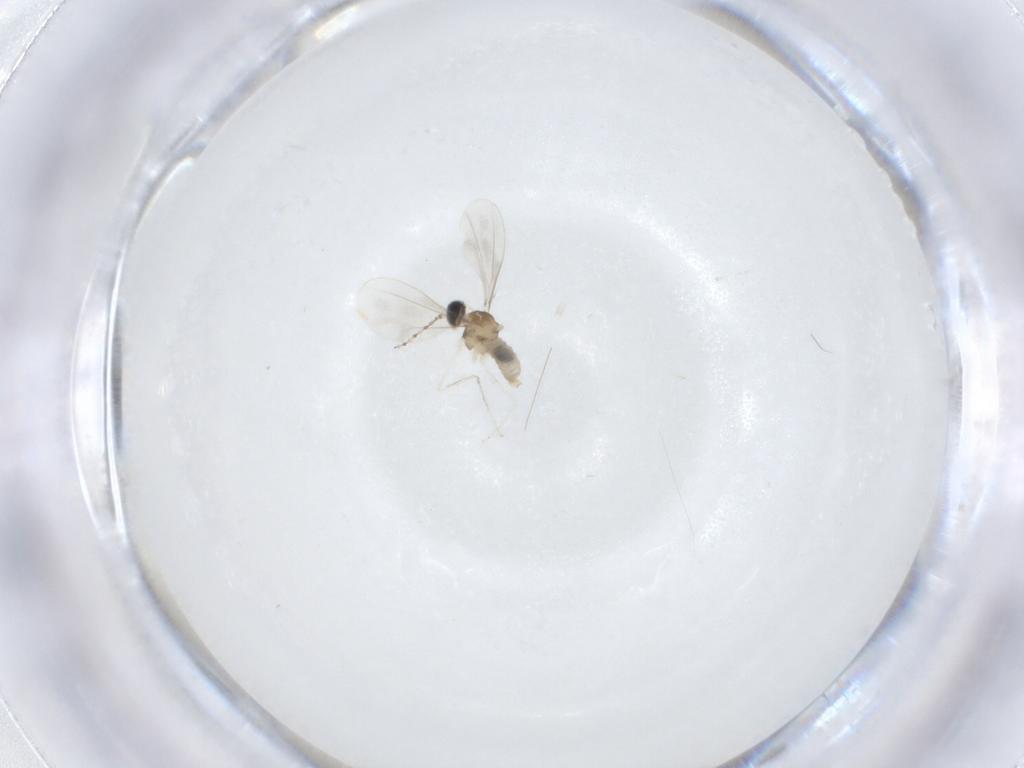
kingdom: Animalia
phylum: Arthropoda
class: Insecta
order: Diptera
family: Cecidomyiidae
